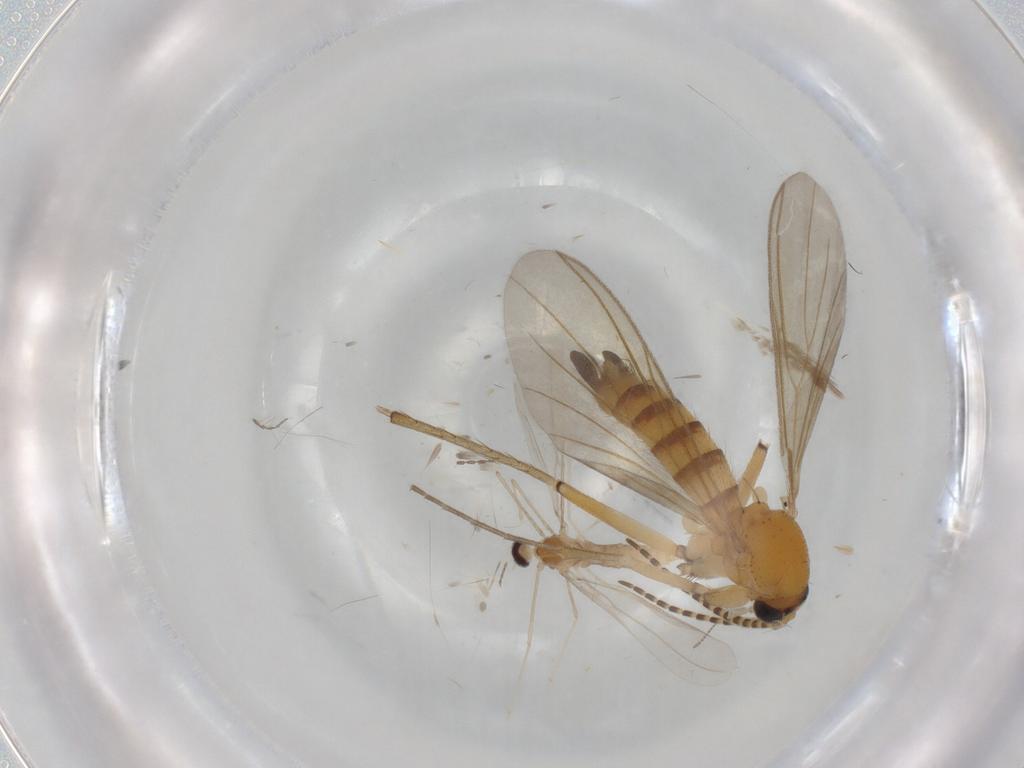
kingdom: Animalia
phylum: Arthropoda
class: Insecta
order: Diptera
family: Mycetophilidae
